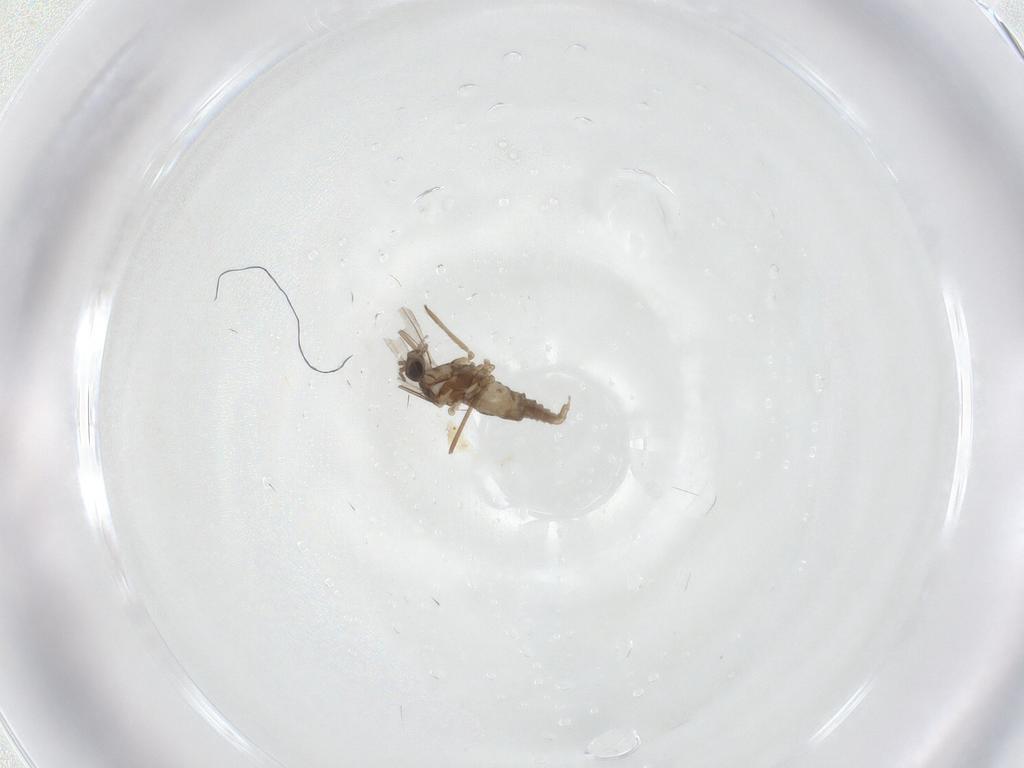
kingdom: Animalia
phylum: Arthropoda
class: Insecta
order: Diptera
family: Cecidomyiidae
